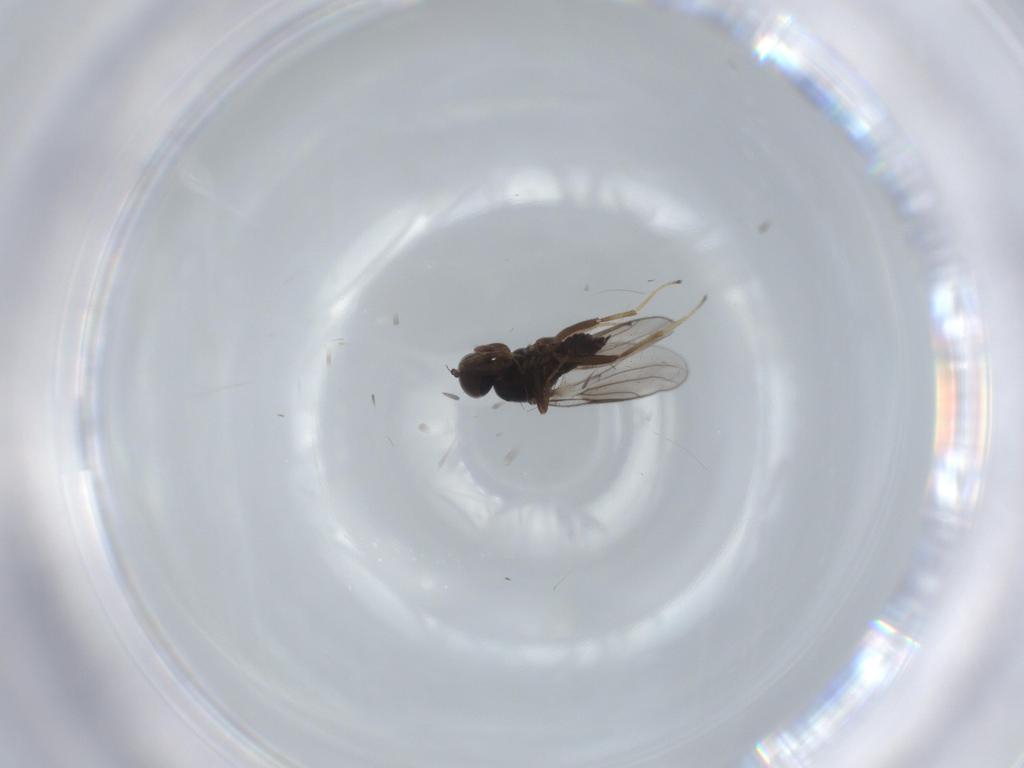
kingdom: Animalia
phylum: Arthropoda
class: Insecta
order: Diptera
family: Hybotidae
